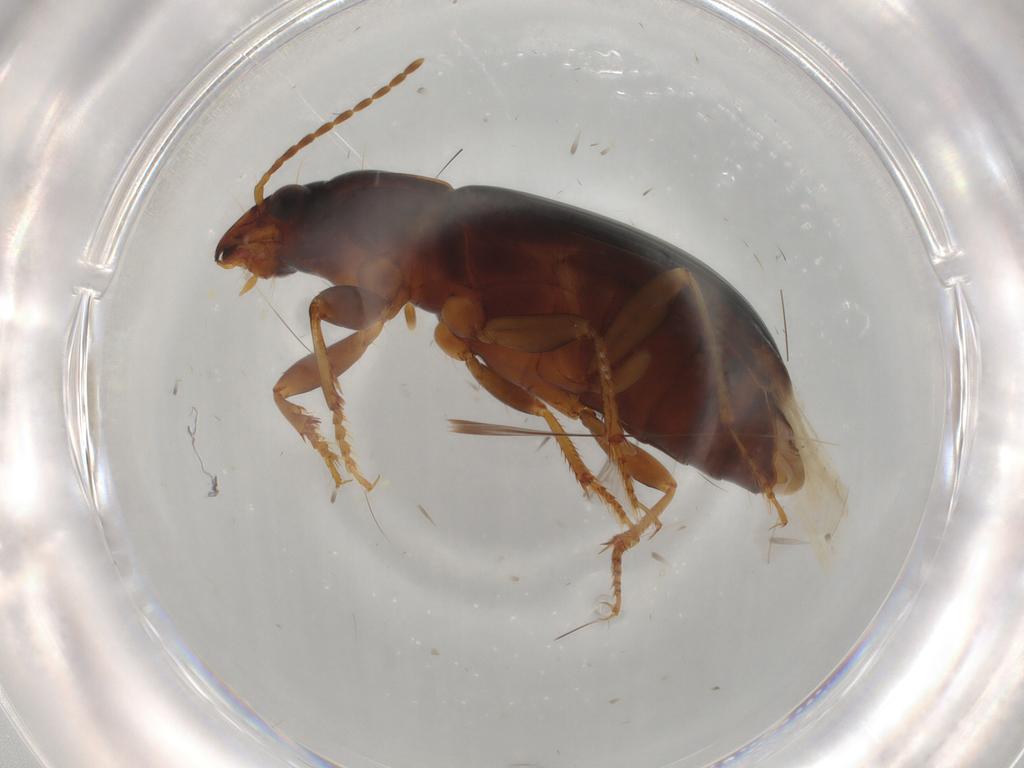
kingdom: Animalia
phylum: Arthropoda
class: Insecta
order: Coleoptera
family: Carabidae
